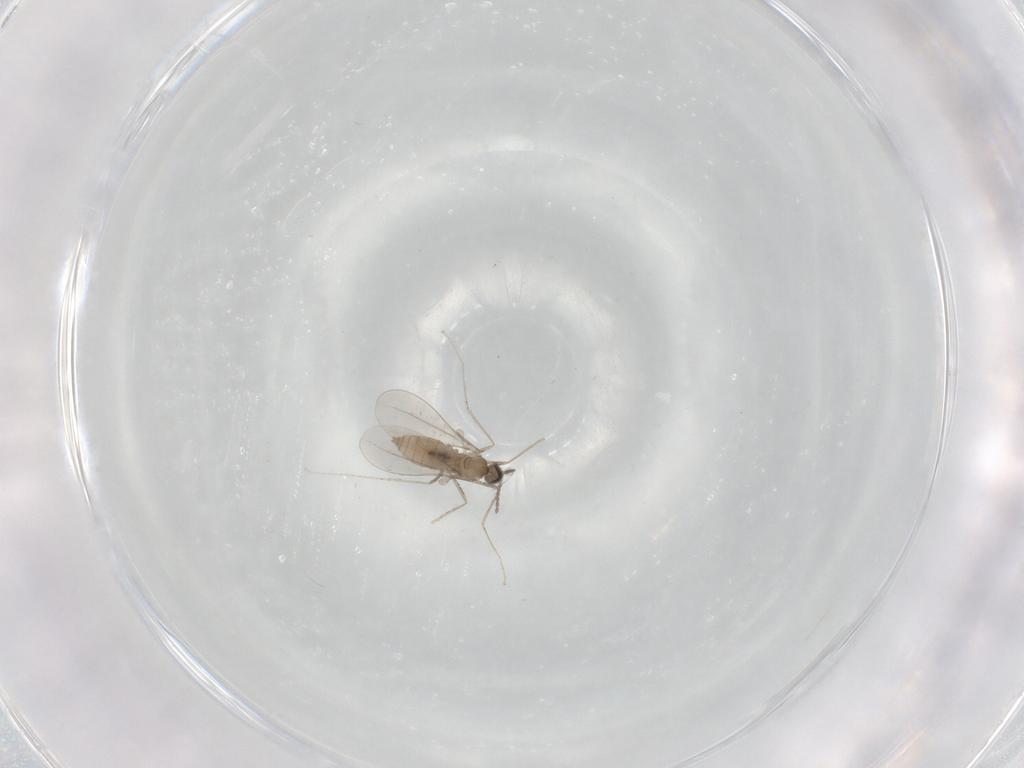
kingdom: Animalia
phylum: Arthropoda
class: Insecta
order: Diptera
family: Cecidomyiidae
